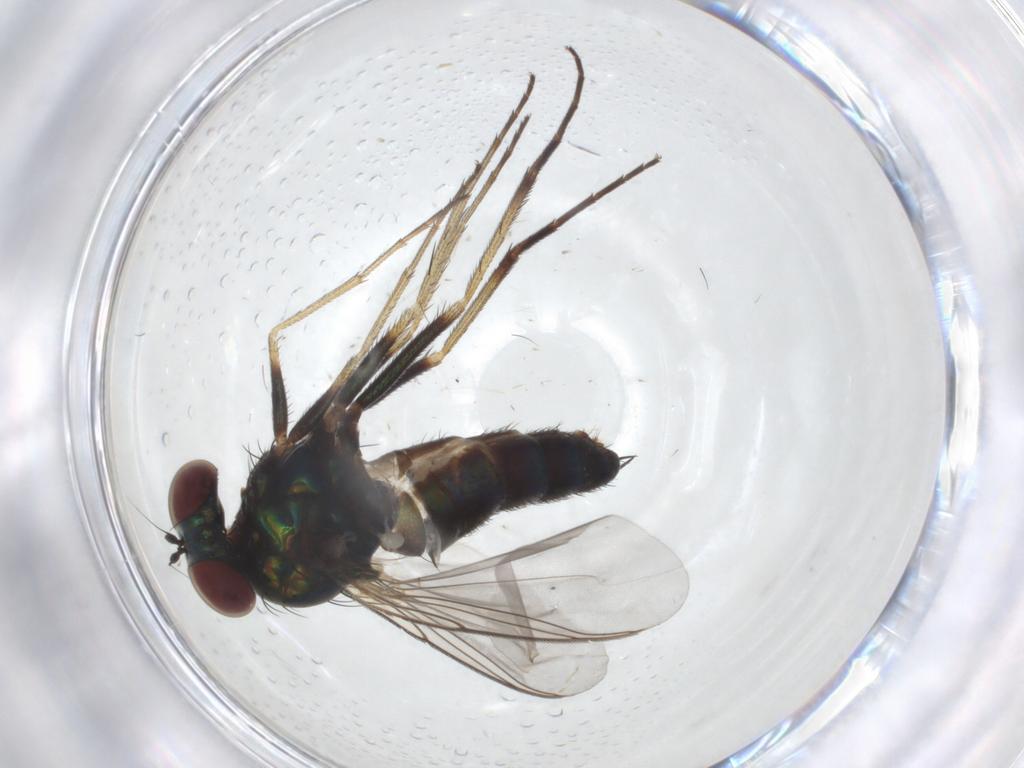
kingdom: Animalia
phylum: Arthropoda
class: Insecta
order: Diptera
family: Dolichopodidae
